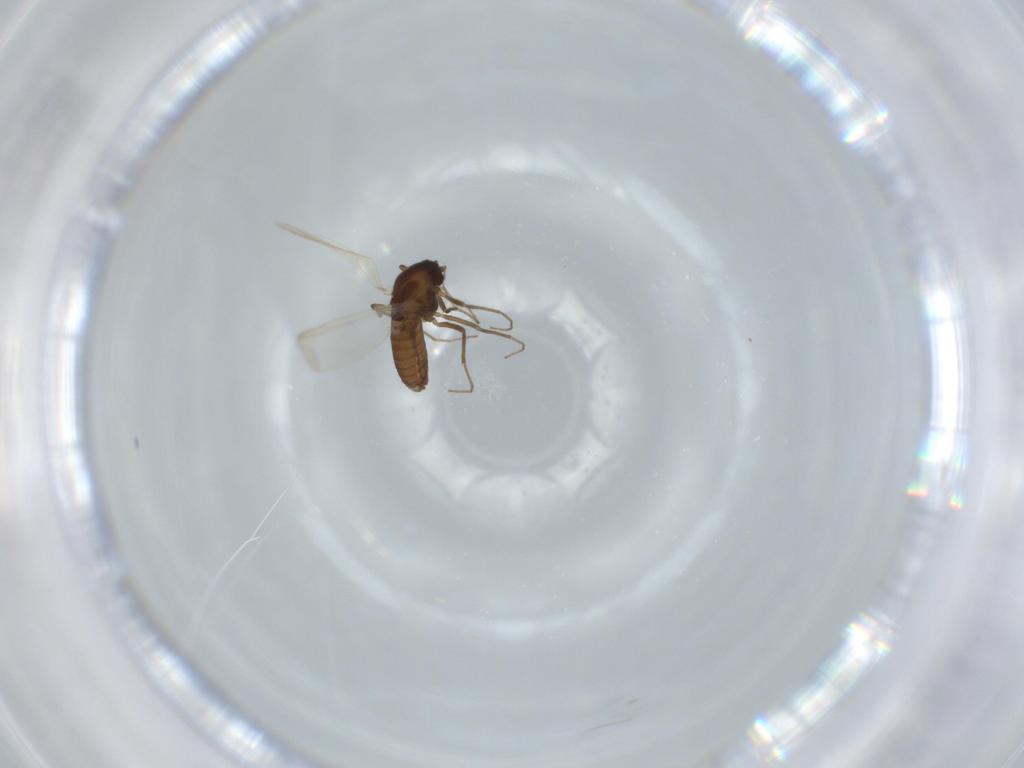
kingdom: Animalia
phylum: Arthropoda
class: Insecta
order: Diptera
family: Chironomidae
